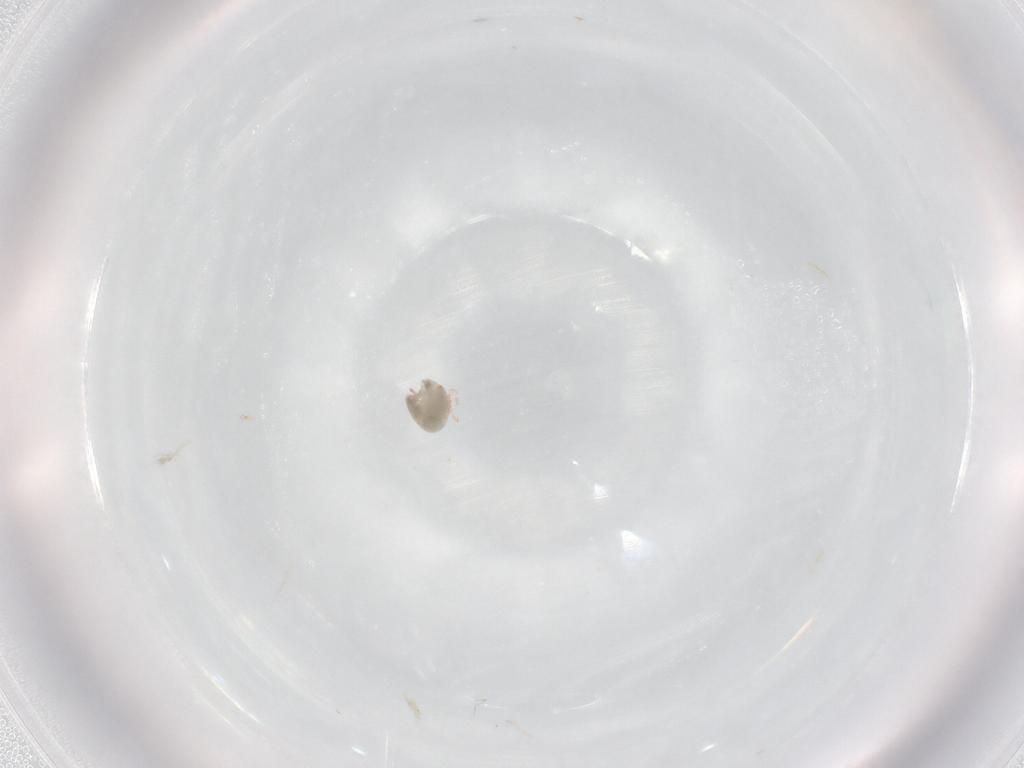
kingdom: Animalia
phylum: Arthropoda
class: Arachnida
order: Trombidiformes
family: Limnesiidae
